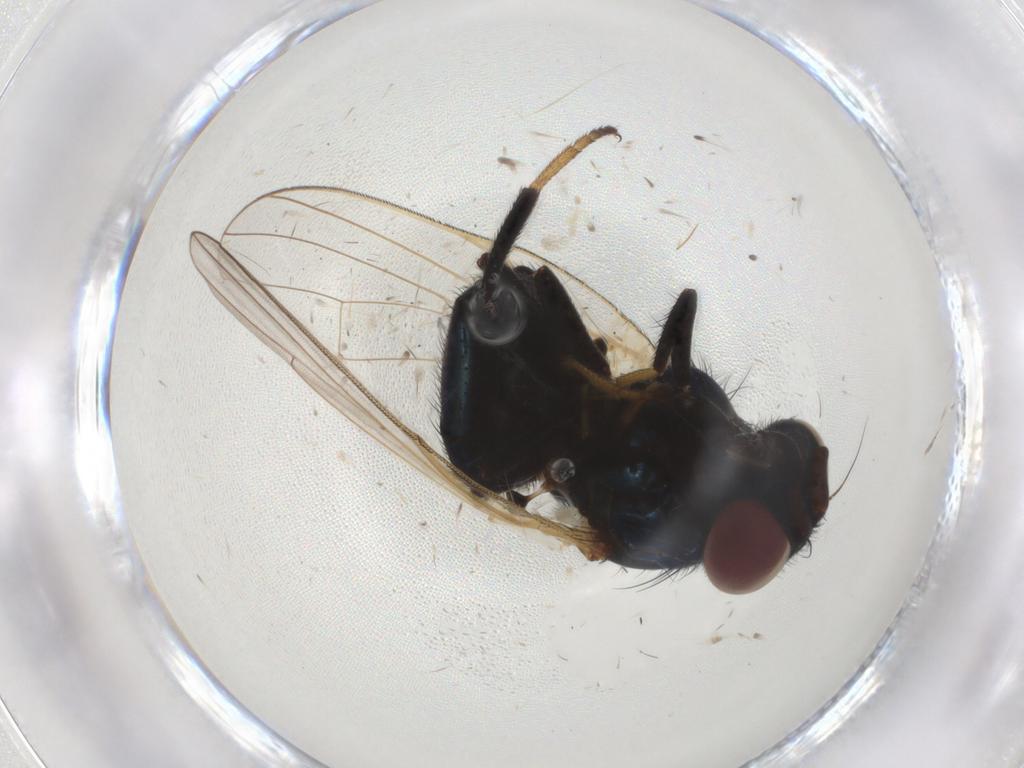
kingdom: Animalia
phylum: Arthropoda
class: Insecta
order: Diptera
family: Lonchaeidae
